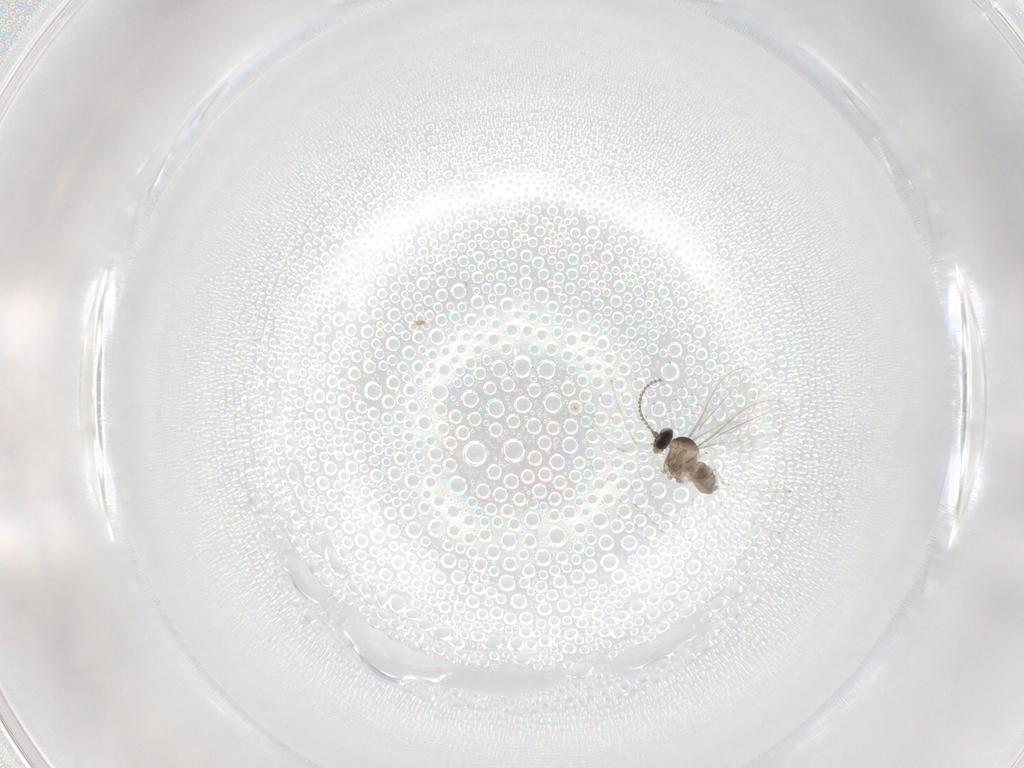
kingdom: Animalia
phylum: Arthropoda
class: Insecta
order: Diptera
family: Cecidomyiidae
